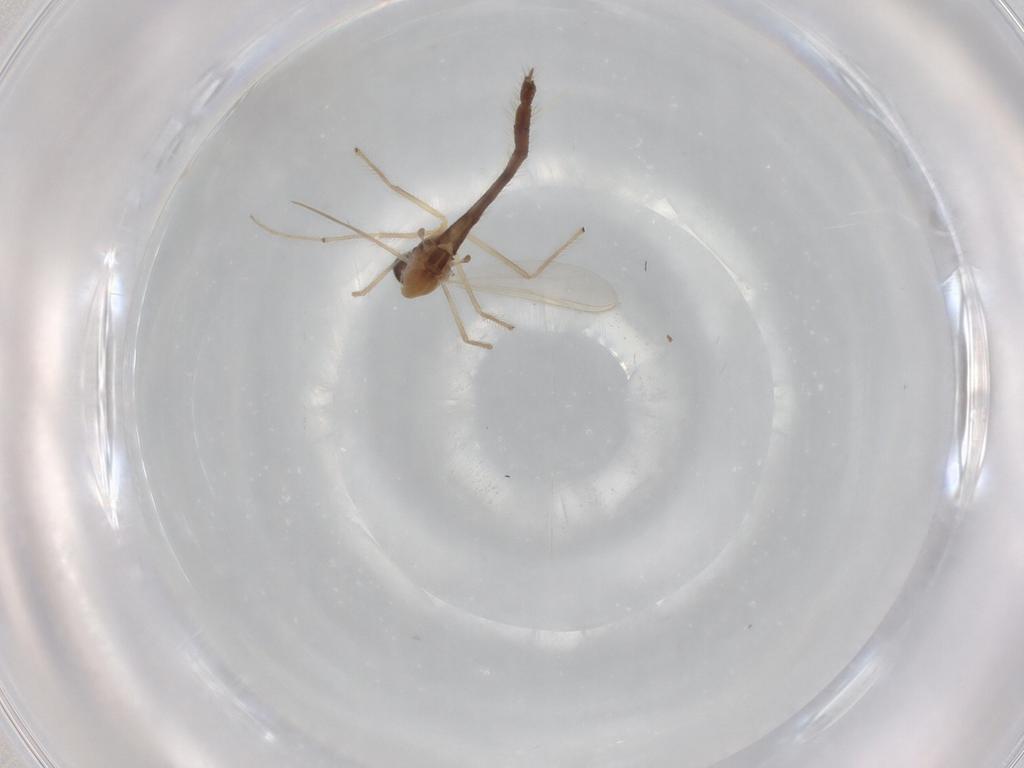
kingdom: Animalia
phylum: Arthropoda
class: Insecta
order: Diptera
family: Chironomidae
